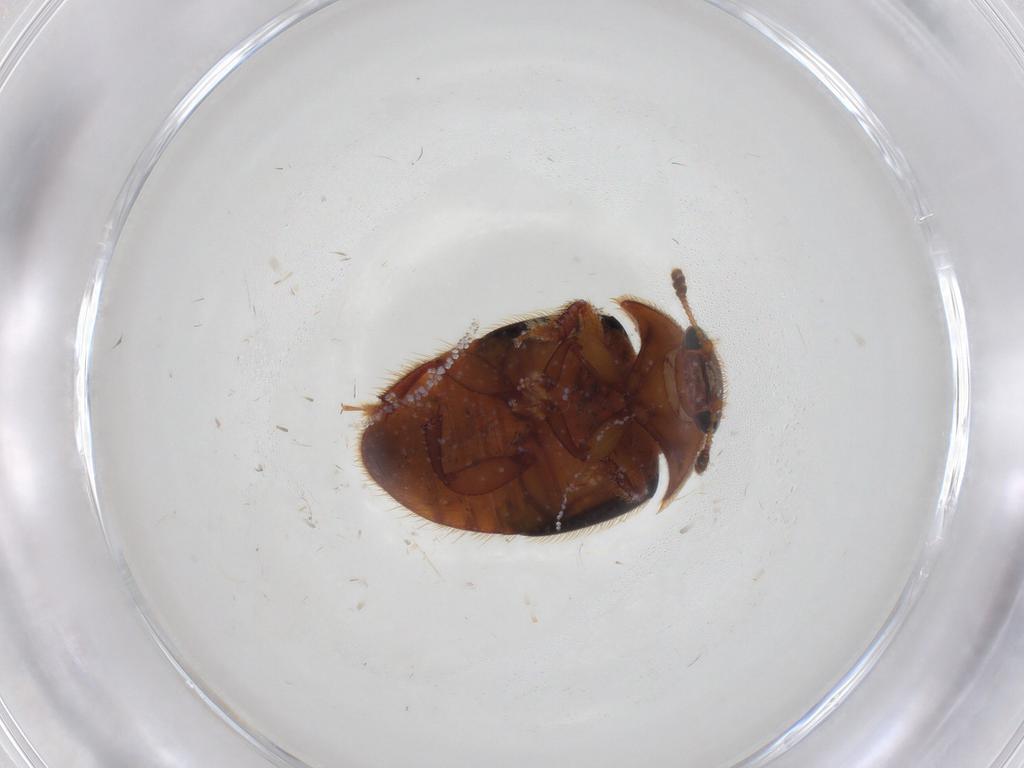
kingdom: Animalia
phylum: Arthropoda
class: Insecta
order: Coleoptera
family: Nitidulidae
